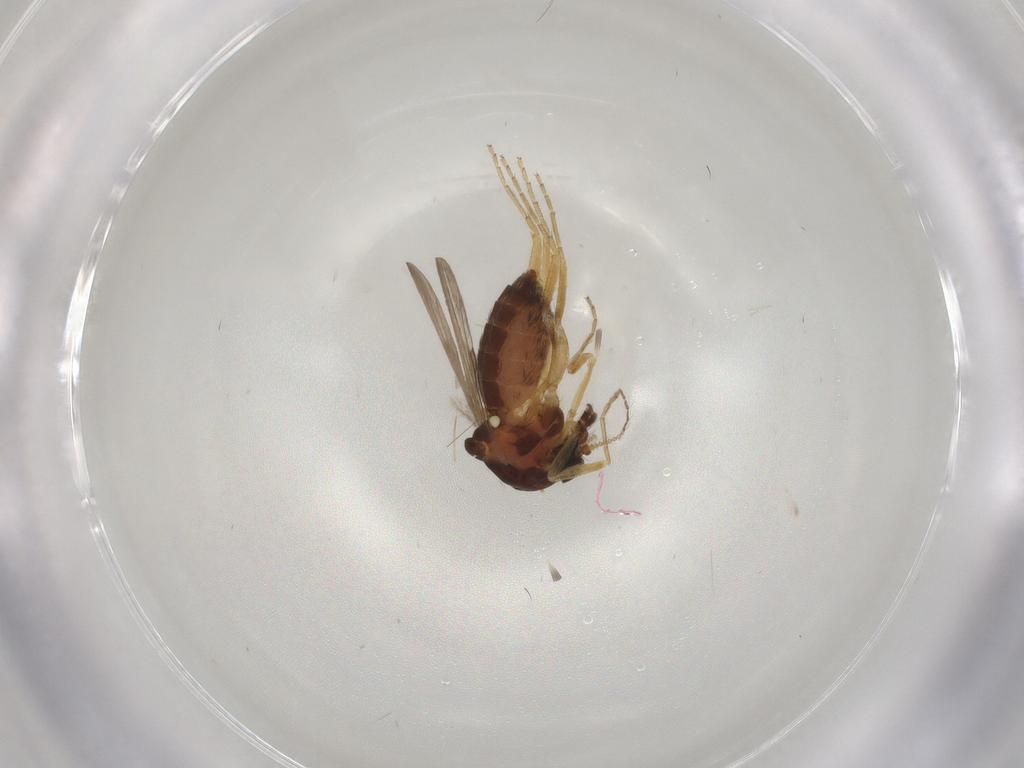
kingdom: Animalia
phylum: Arthropoda
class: Insecta
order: Diptera
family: Ceratopogonidae
